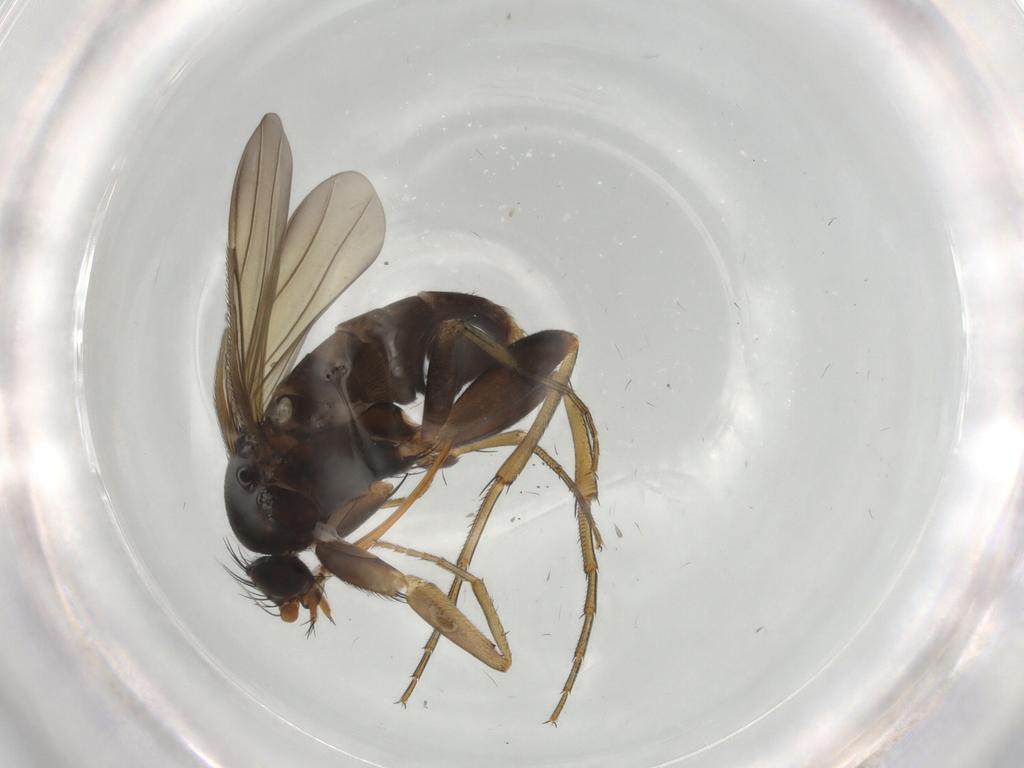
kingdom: Animalia
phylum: Arthropoda
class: Insecta
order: Diptera
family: Phoridae
